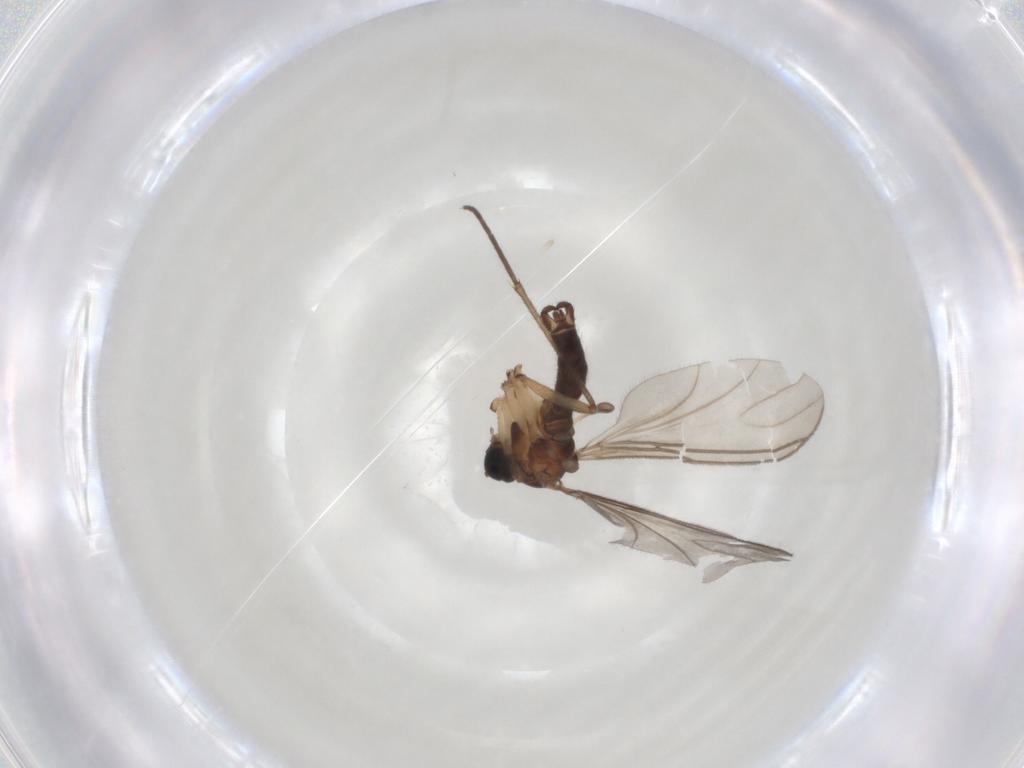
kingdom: Animalia
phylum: Arthropoda
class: Insecta
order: Diptera
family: Sciaridae
